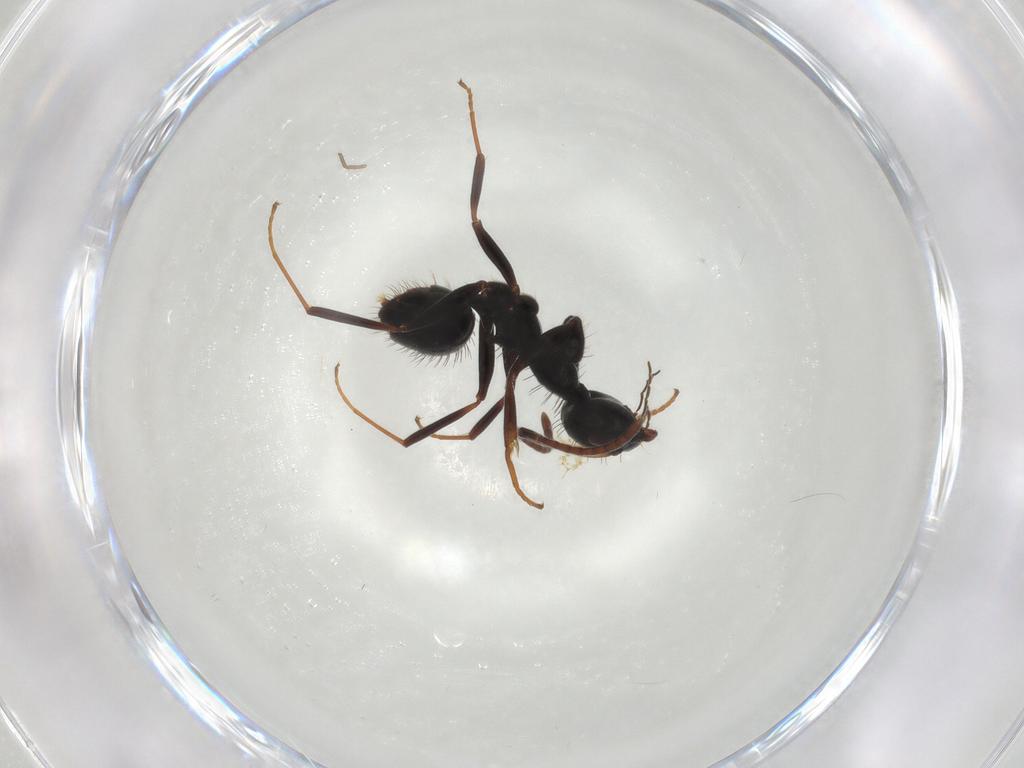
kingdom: Animalia
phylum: Arthropoda
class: Insecta
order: Hymenoptera
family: Formicidae
